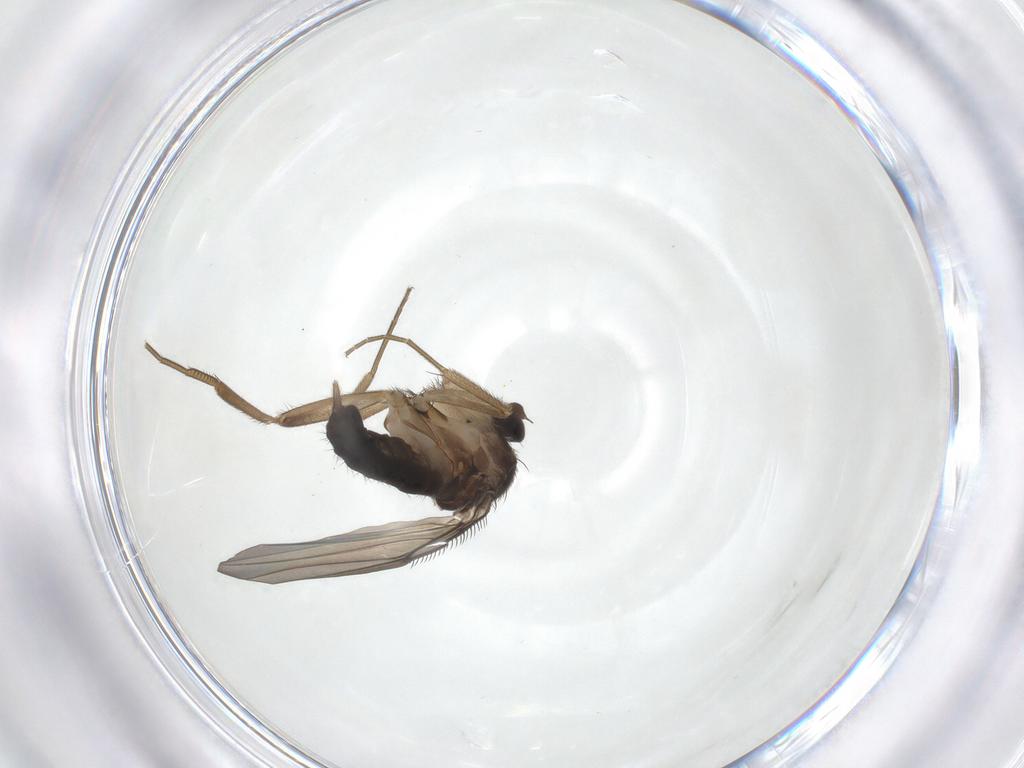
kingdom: Animalia
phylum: Arthropoda
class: Insecta
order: Diptera
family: Phoridae
